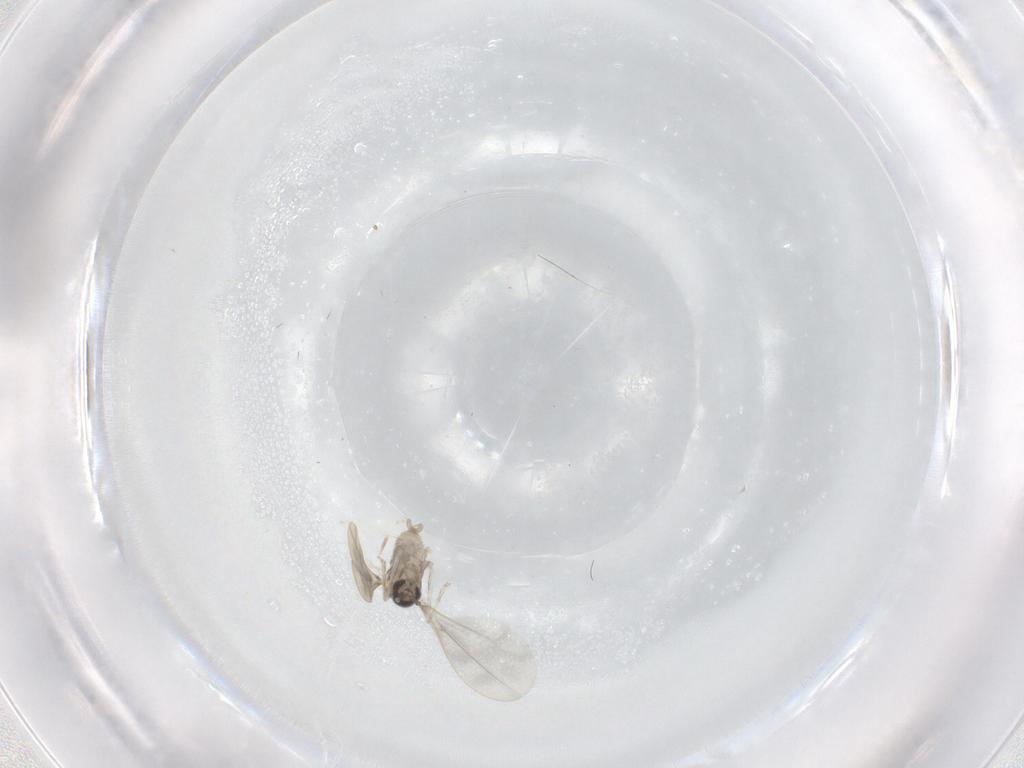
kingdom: Animalia
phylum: Arthropoda
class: Insecta
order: Diptera
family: Cecidomyiidae
